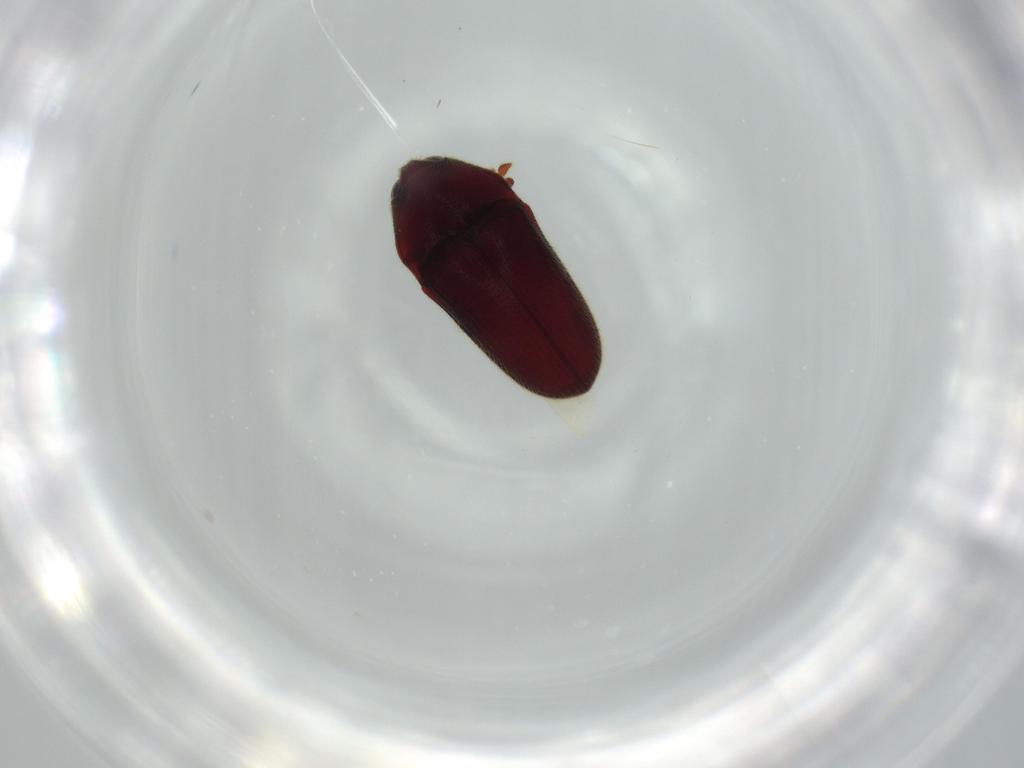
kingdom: Animalia
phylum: Arthropoda
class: Insecta
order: Coleoptera
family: Throscidae
